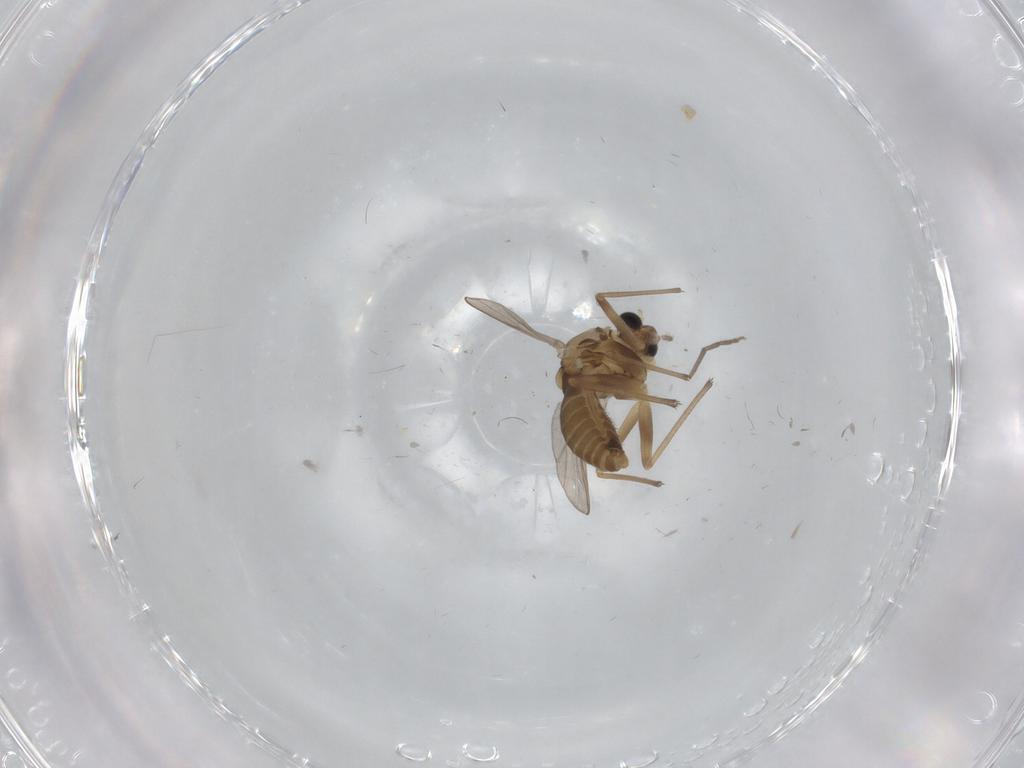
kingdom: Animalia
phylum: Arthropoda
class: Insecta
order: Diptera
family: Chironomidae
